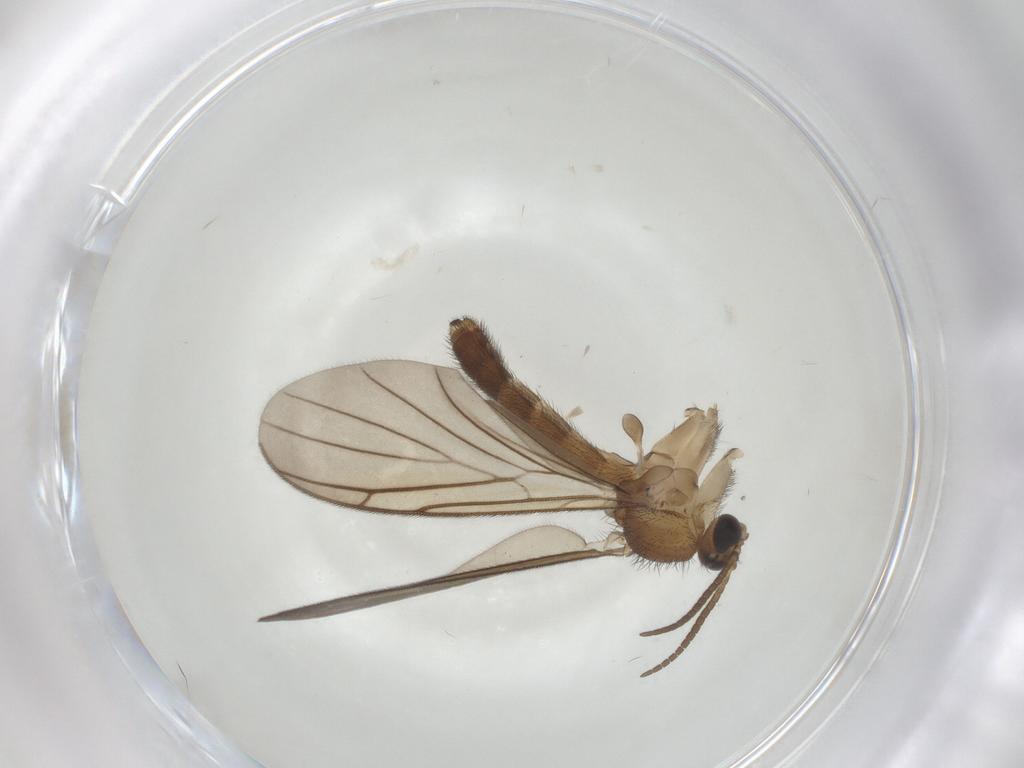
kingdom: Animalia
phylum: Arthropoda
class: Insecta
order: Diptera
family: Keroplatidae
